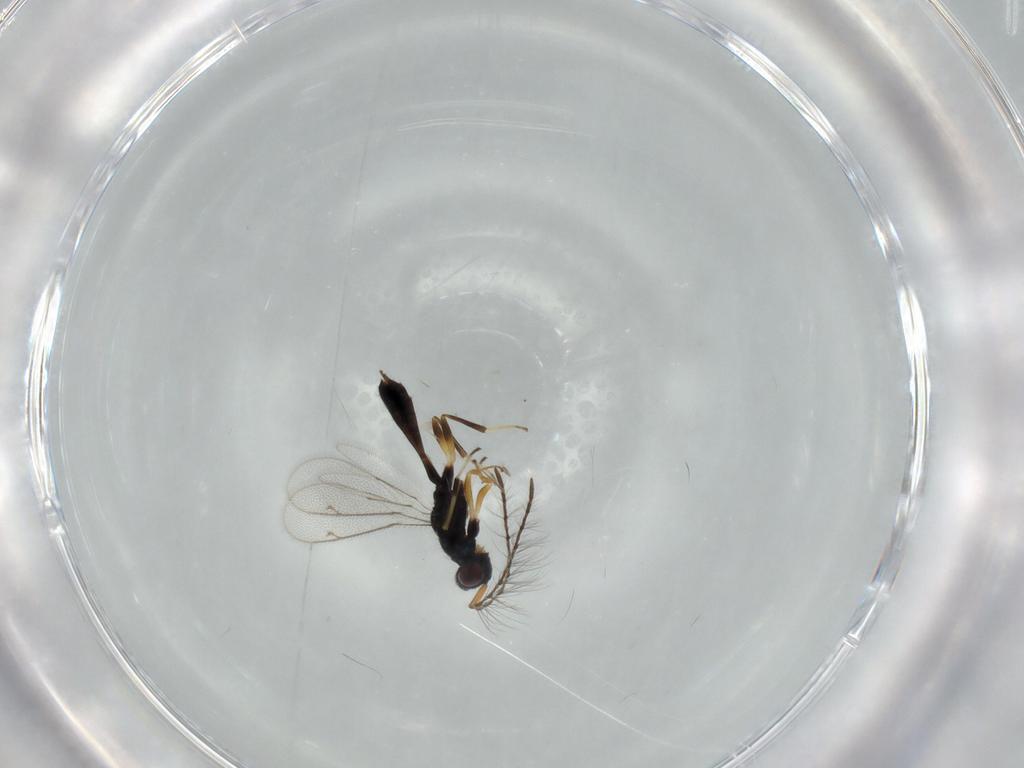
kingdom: Animalia
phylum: Arthropoda
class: Insecta
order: Hymenoptera
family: Eupelmidae
